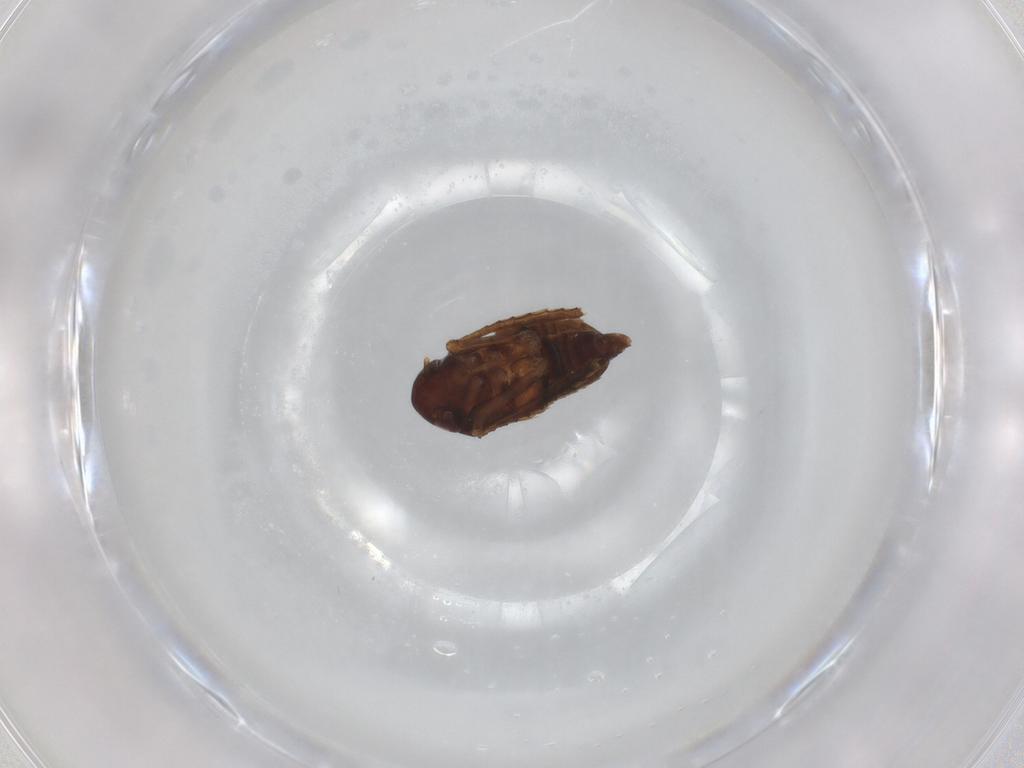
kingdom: Animalia
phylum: Arthropoda
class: Insecta
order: Hemiptera
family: Cicadellidae
